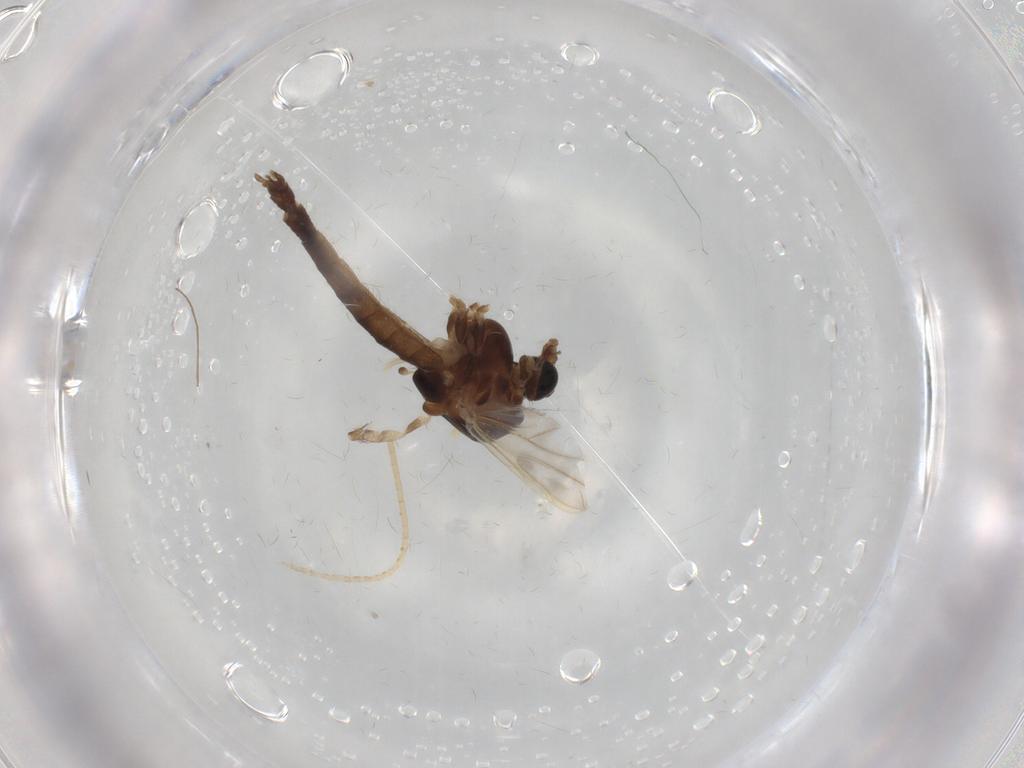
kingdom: Animalia
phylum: Arthropoda
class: Insecta
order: Diptera
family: Chironomidae
